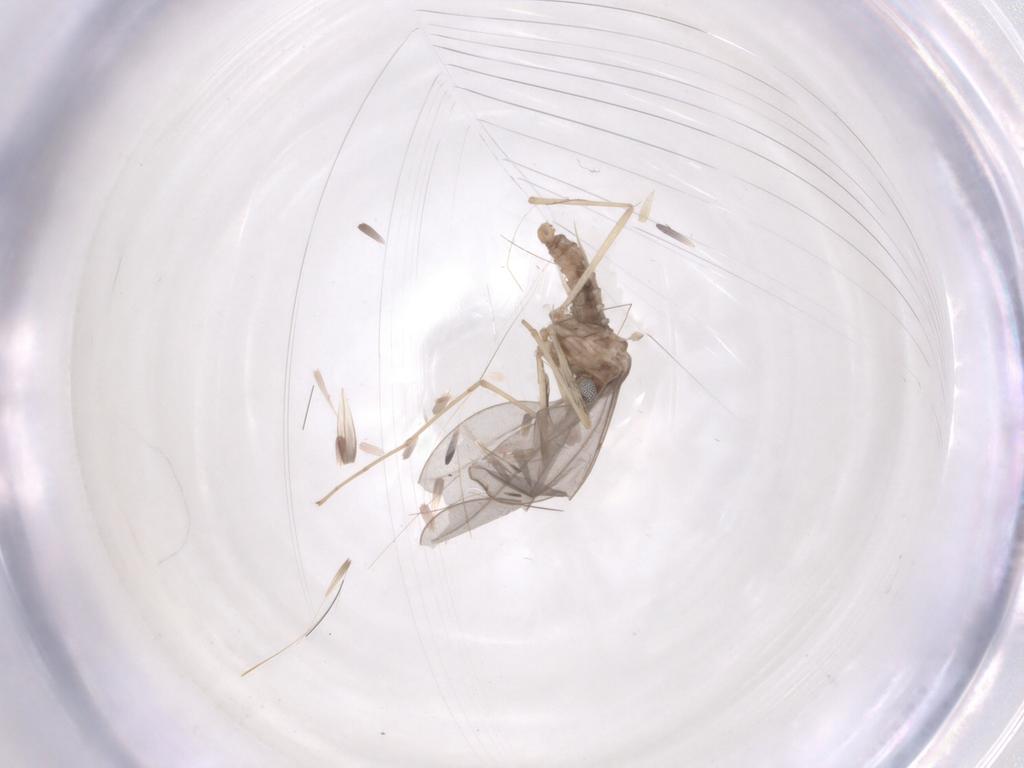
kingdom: Animalia
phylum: Arthropoda
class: Insecta
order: Diptera
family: Cecidomyiidae
